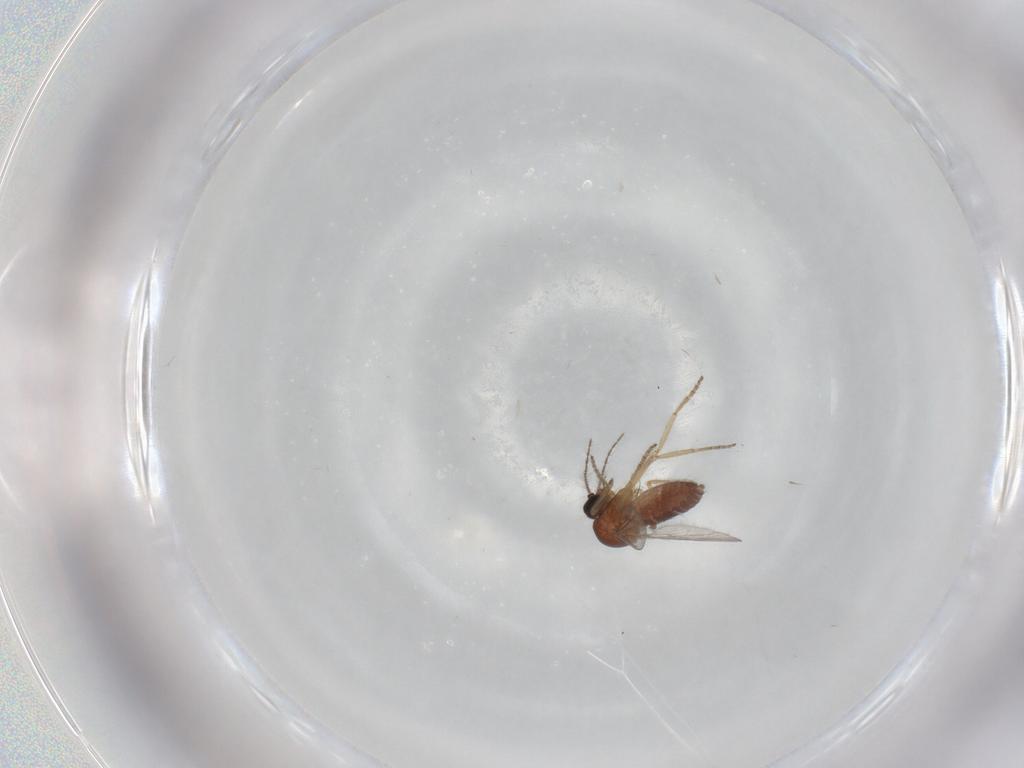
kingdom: Animalia
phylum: Arthropoda
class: Insecta
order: Diptera
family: Ceratopogonidae
